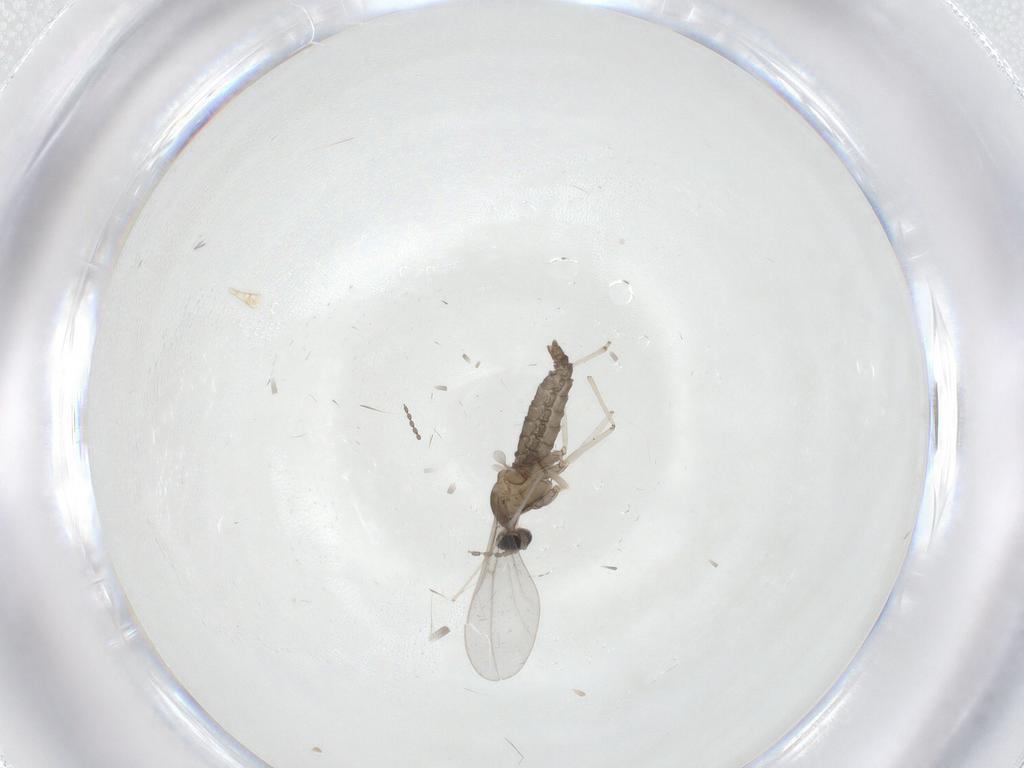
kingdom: Animalia
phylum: Arthropoda
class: Insecta
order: Diptera
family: Cecidomyiidae
